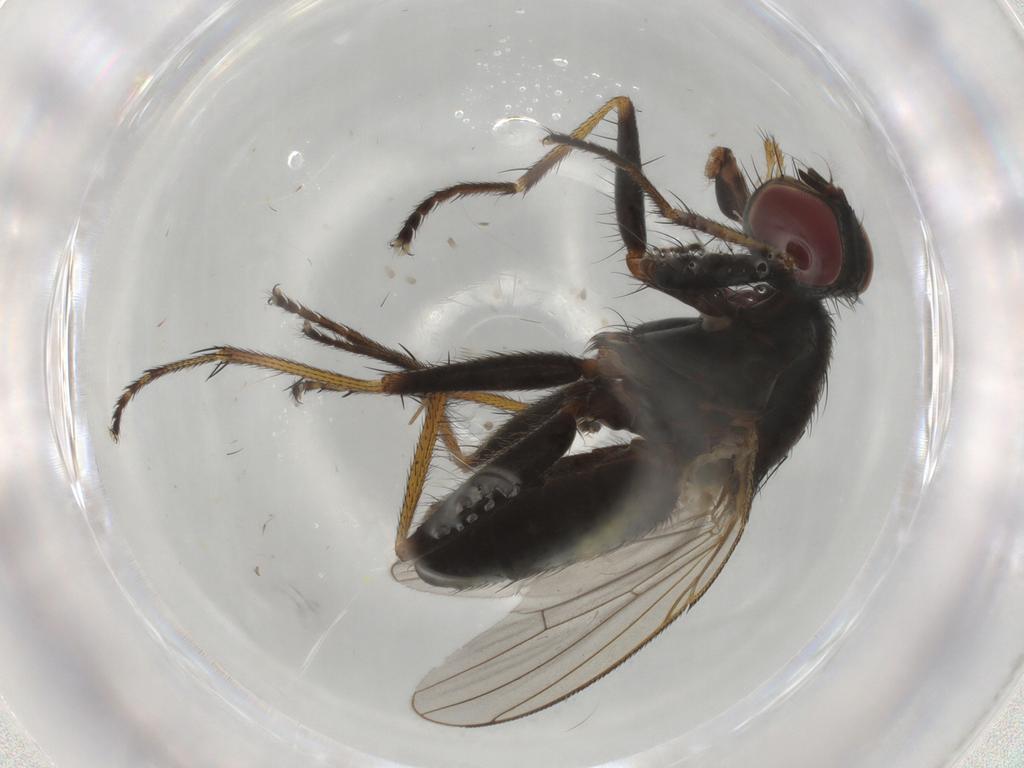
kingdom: Animalia
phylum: Arthropoda
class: Insecta
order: Diptera
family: Muscidae
